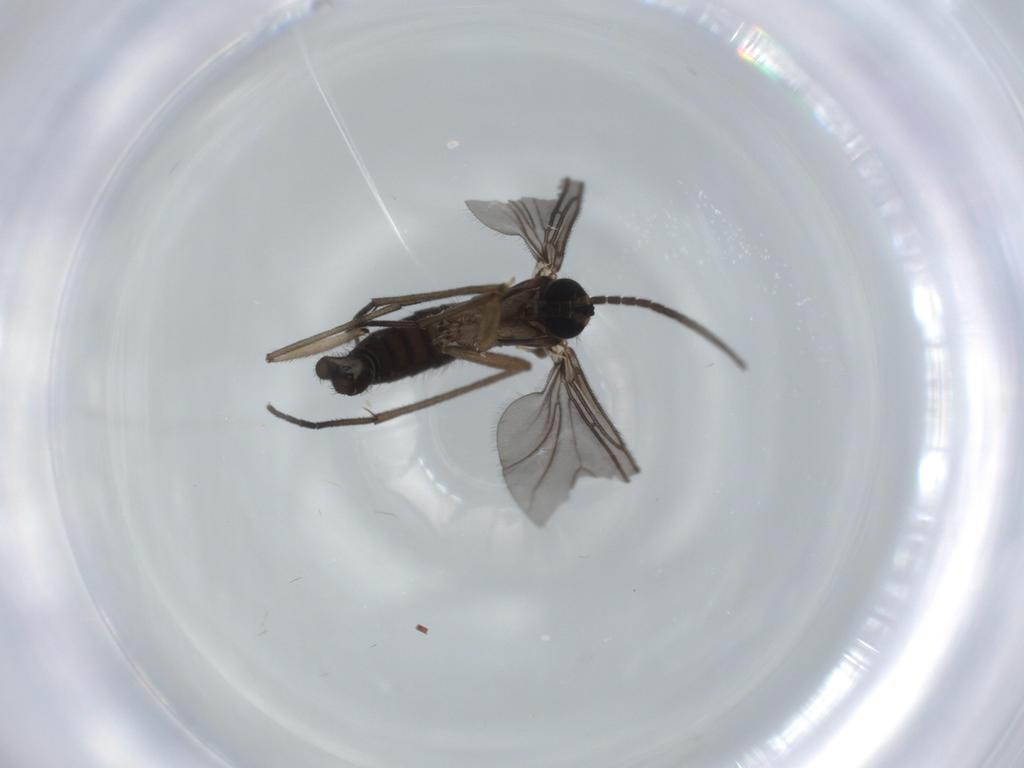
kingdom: Animalia
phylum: Arthropoda
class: Insecta
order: Diptera
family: Sciaridae
